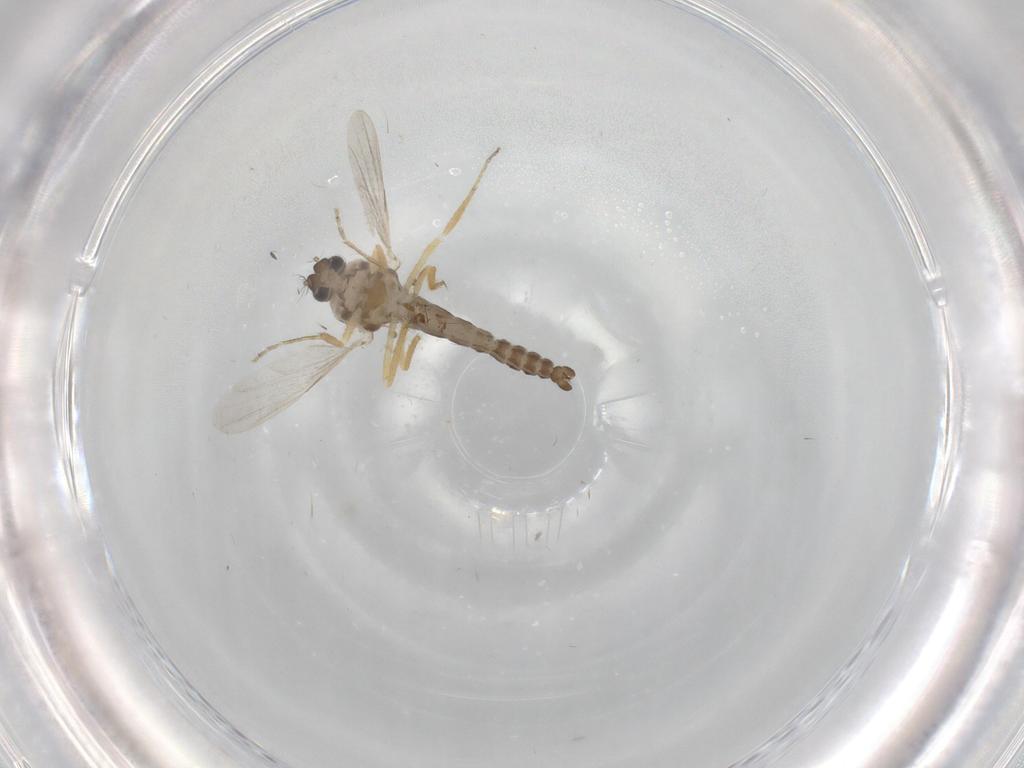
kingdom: Animalia
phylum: Arthropoda
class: Insecta
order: Diptera
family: Ceratopogonidae
